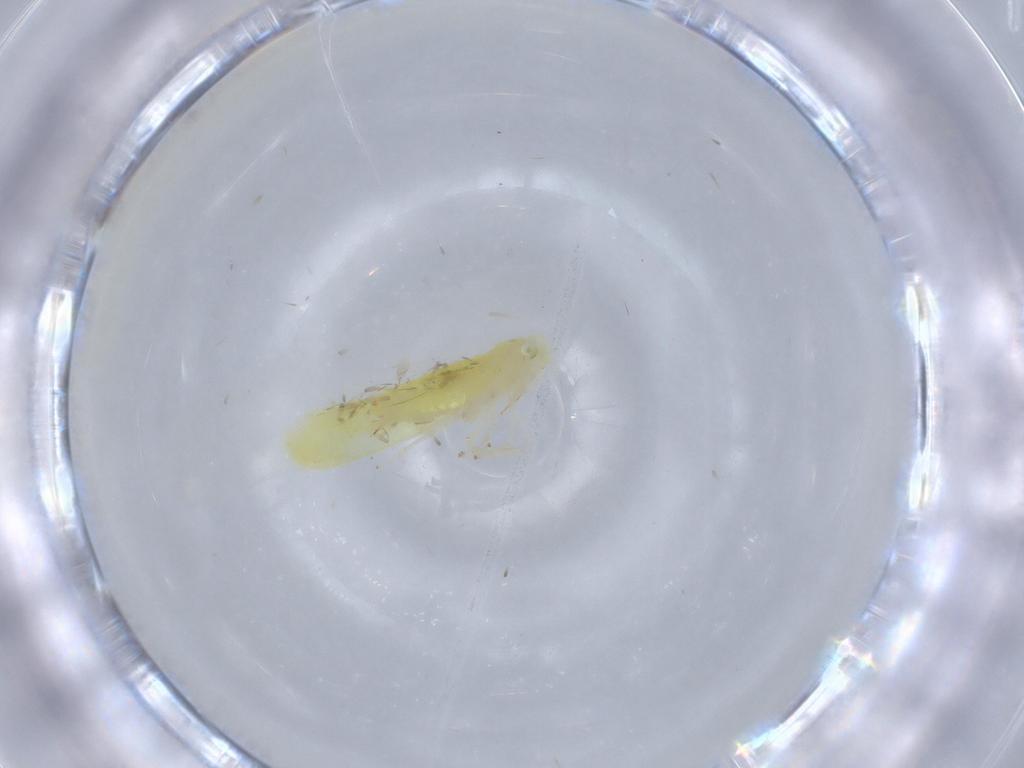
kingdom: Animalia
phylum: Arthropoda
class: Insecta
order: Hemiptera
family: Cicadellidae
